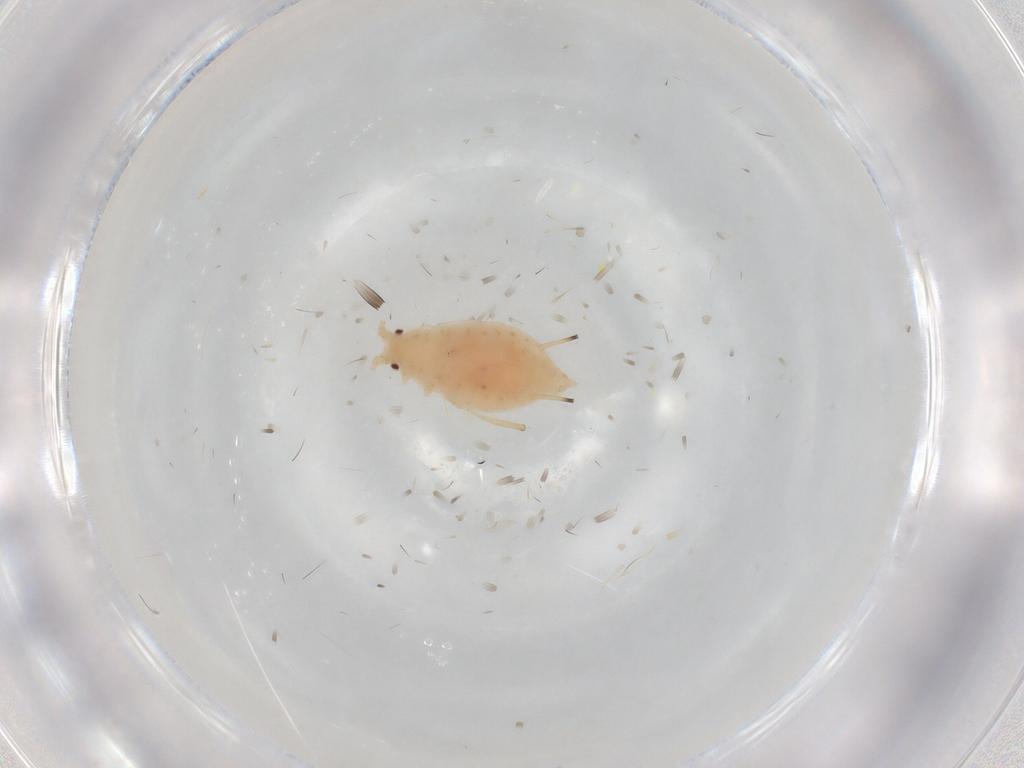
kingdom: Animalia
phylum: Arthropoda
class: Insecta
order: Hemiptera
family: Aphididae
